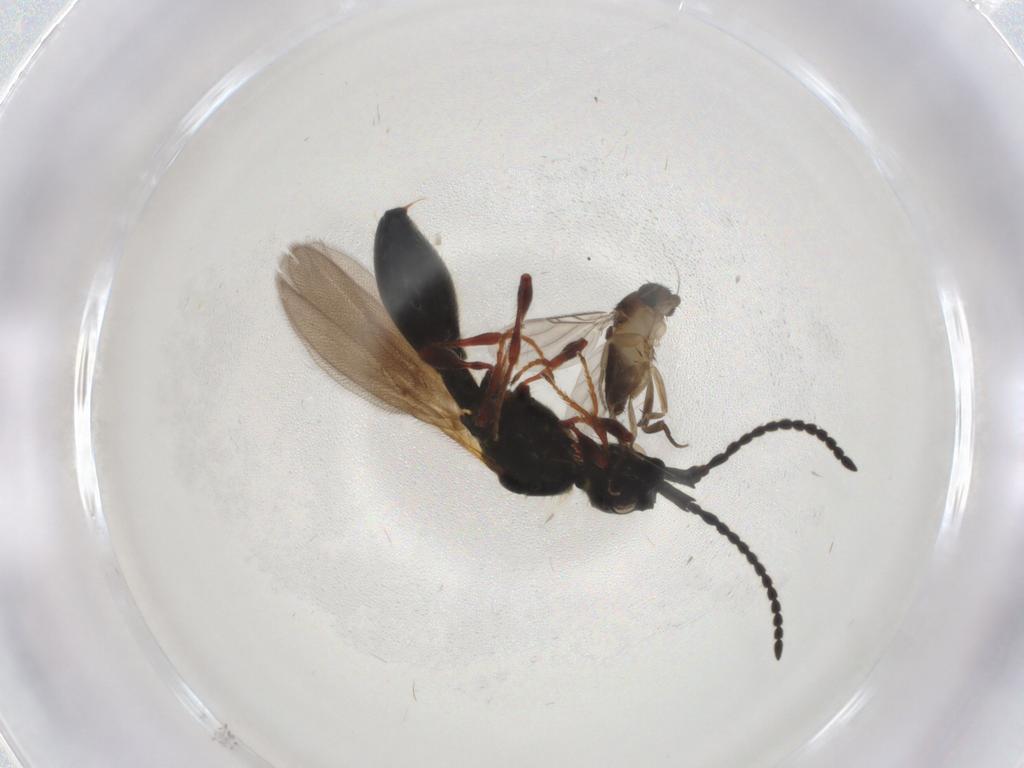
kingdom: Animalia
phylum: Arthropoda
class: Insecta
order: Diptera
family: Phoridae
